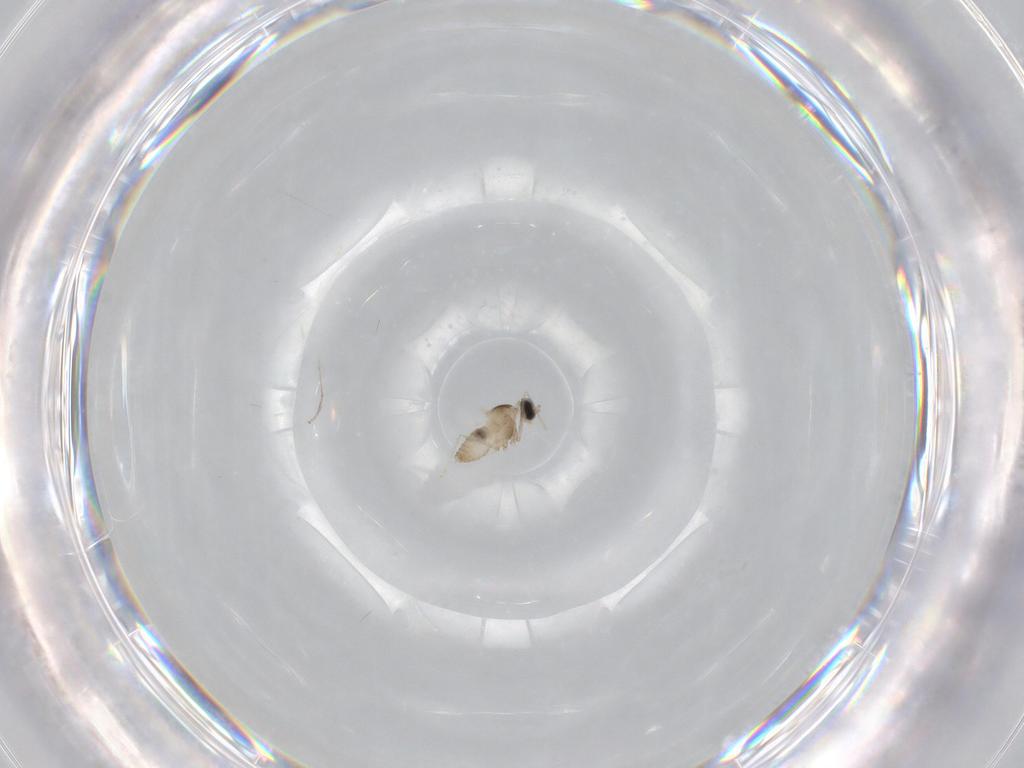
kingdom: Animalia
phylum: Arthropoda
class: Insecta
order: Diptera
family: Cecidomyiidae
